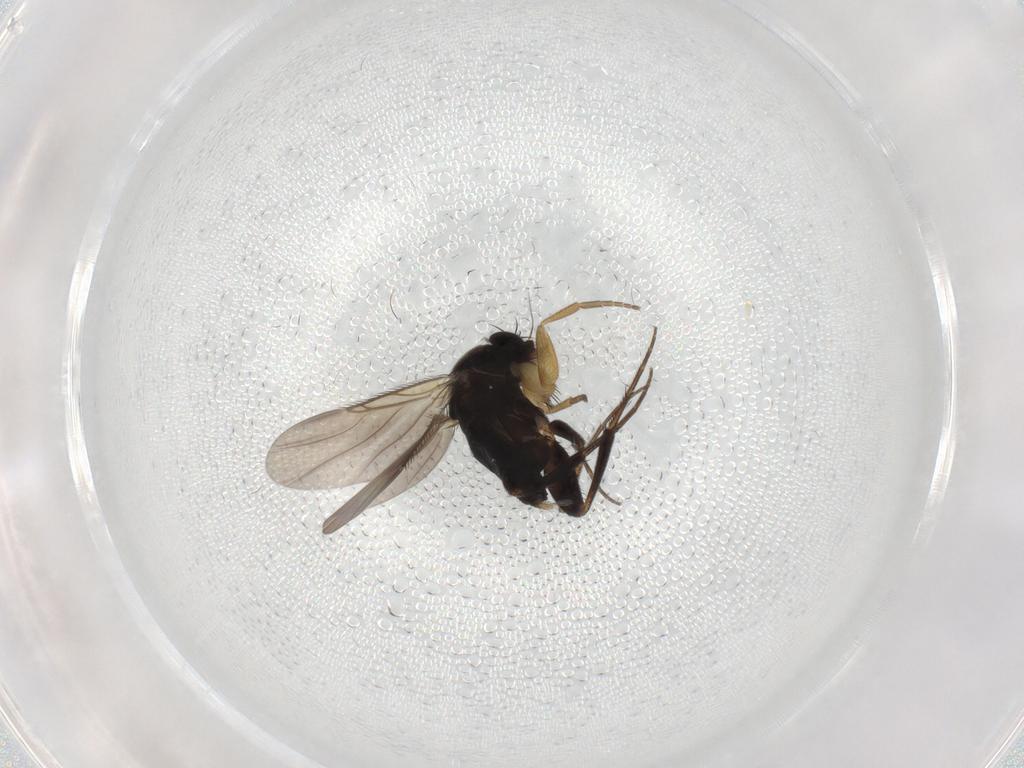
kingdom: Animalia
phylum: Arthropoda
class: Insecta
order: Diptera
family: Phoridae
